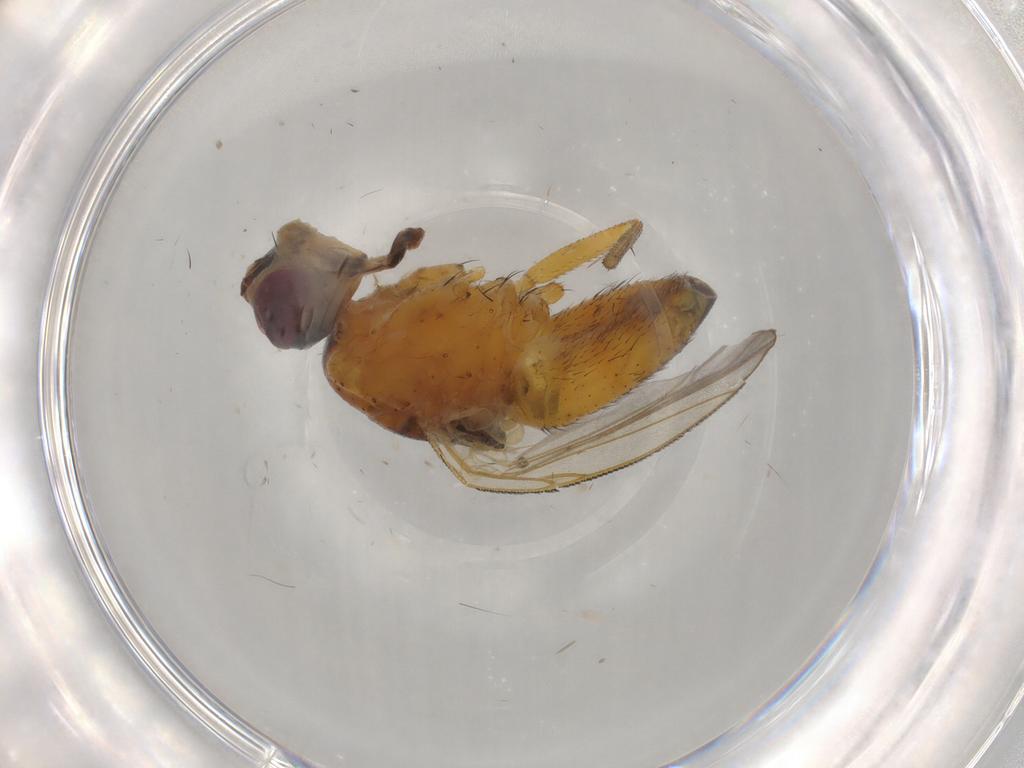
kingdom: Animalia
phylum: Arthropoda
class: Insecta
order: Diptera
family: Muscidae
